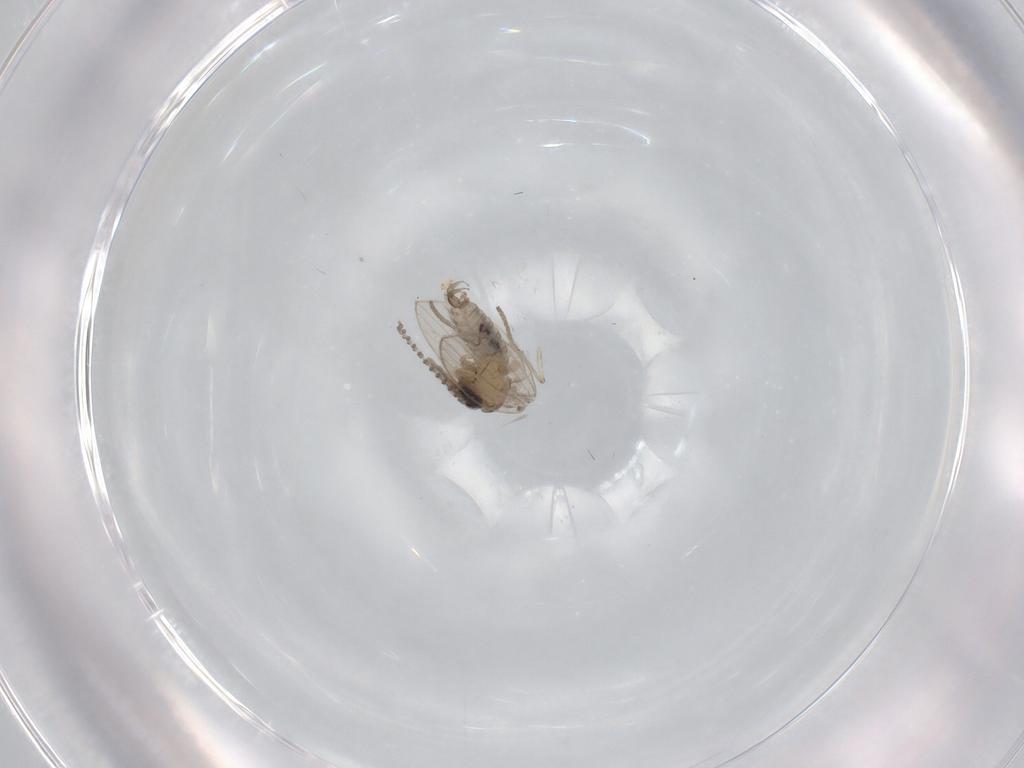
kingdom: Animalia
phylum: Arthropoda
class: Insecta
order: Diptera
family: Psychodidae
